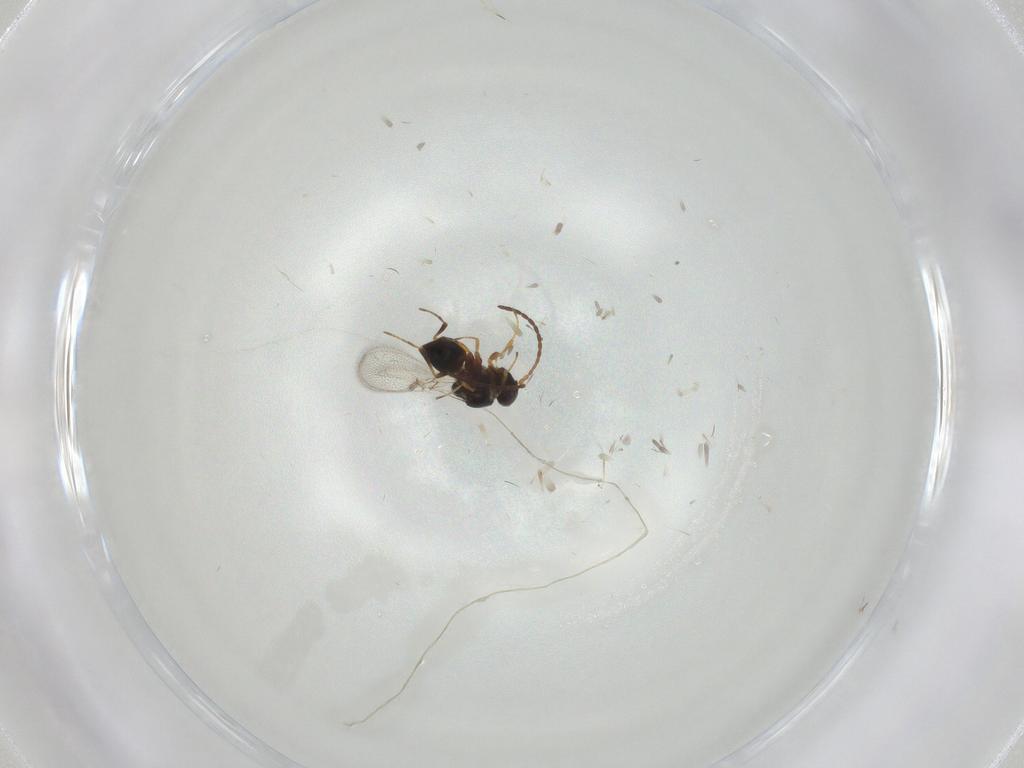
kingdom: Animalia
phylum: Arthropoda
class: Insecta
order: Hymenoptera
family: Figitidae
